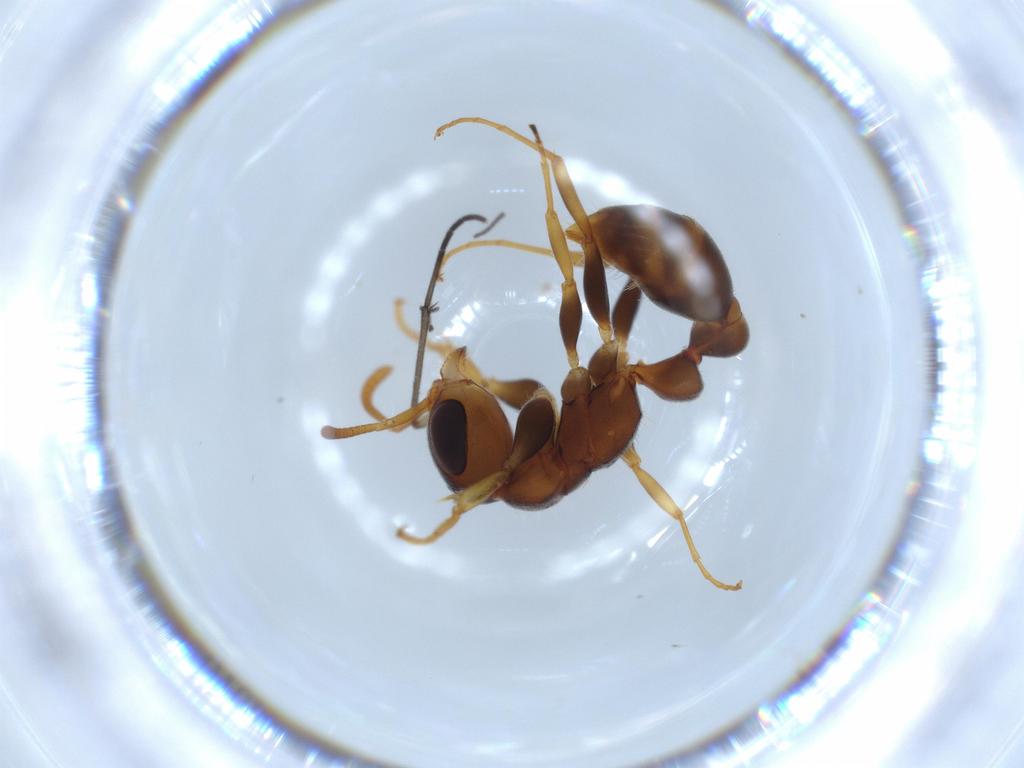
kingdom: Animalia
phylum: Arthropoda
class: Insecta
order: Hymenoptera
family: Formicidae
